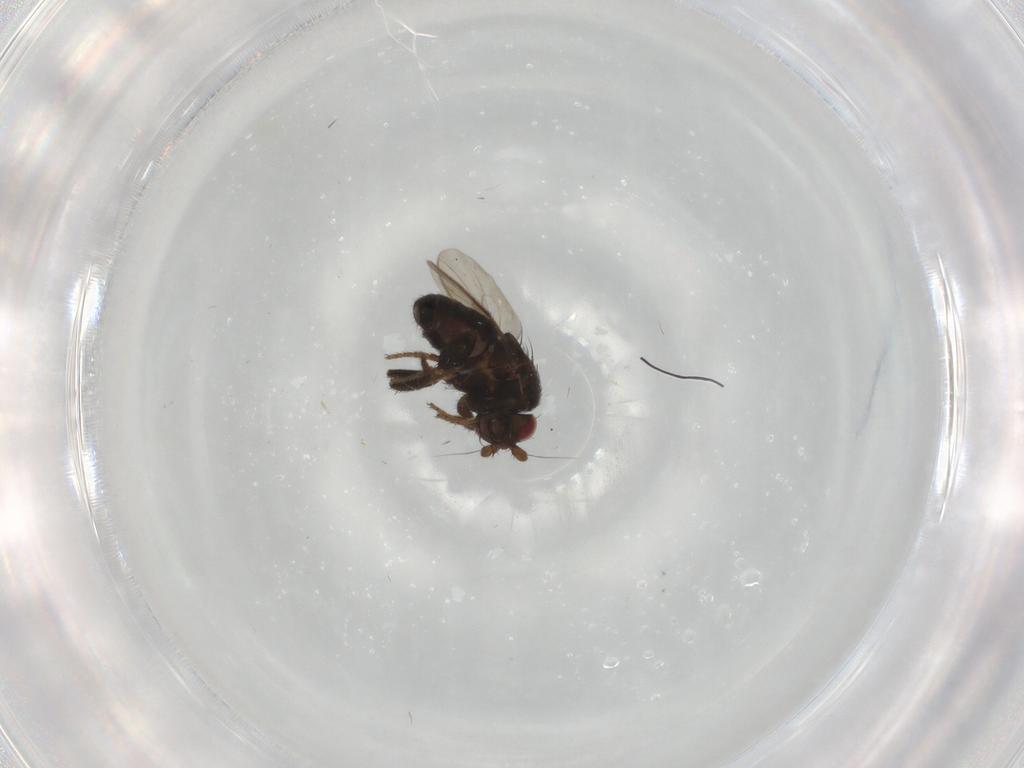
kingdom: Animalia
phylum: Arthropoda
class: Insecta
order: Diptera
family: Sphaeroceridae
